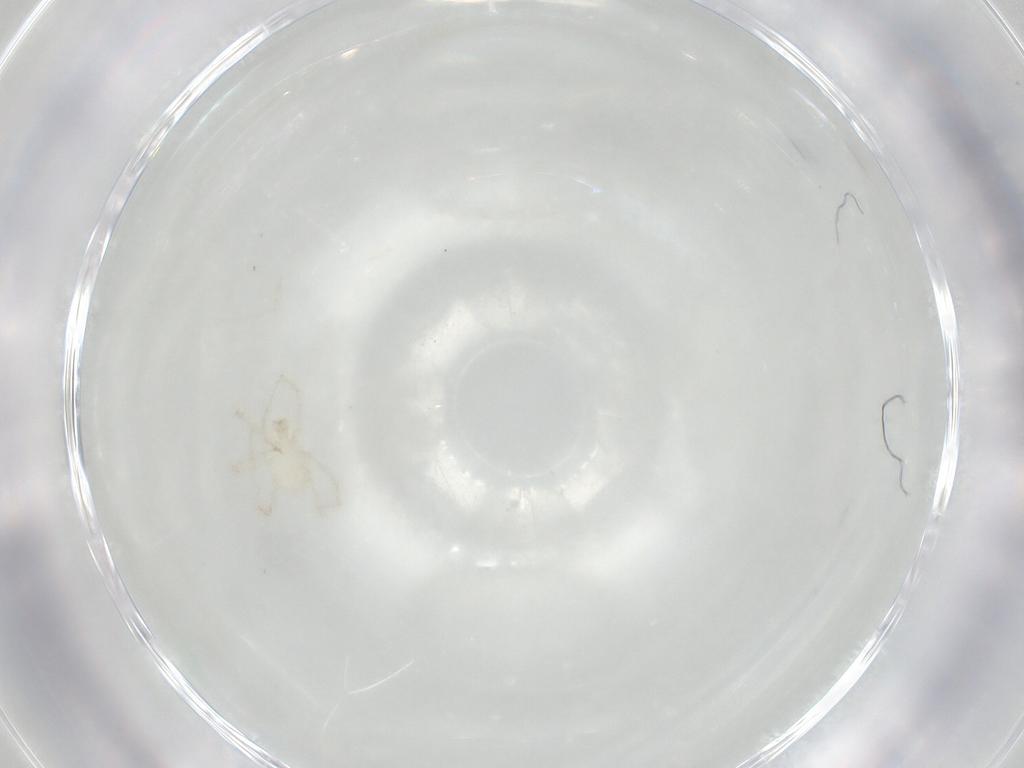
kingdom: Animalia
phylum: Arthropoda
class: Arachnida
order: Trombidiformes
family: Erythraeidae
